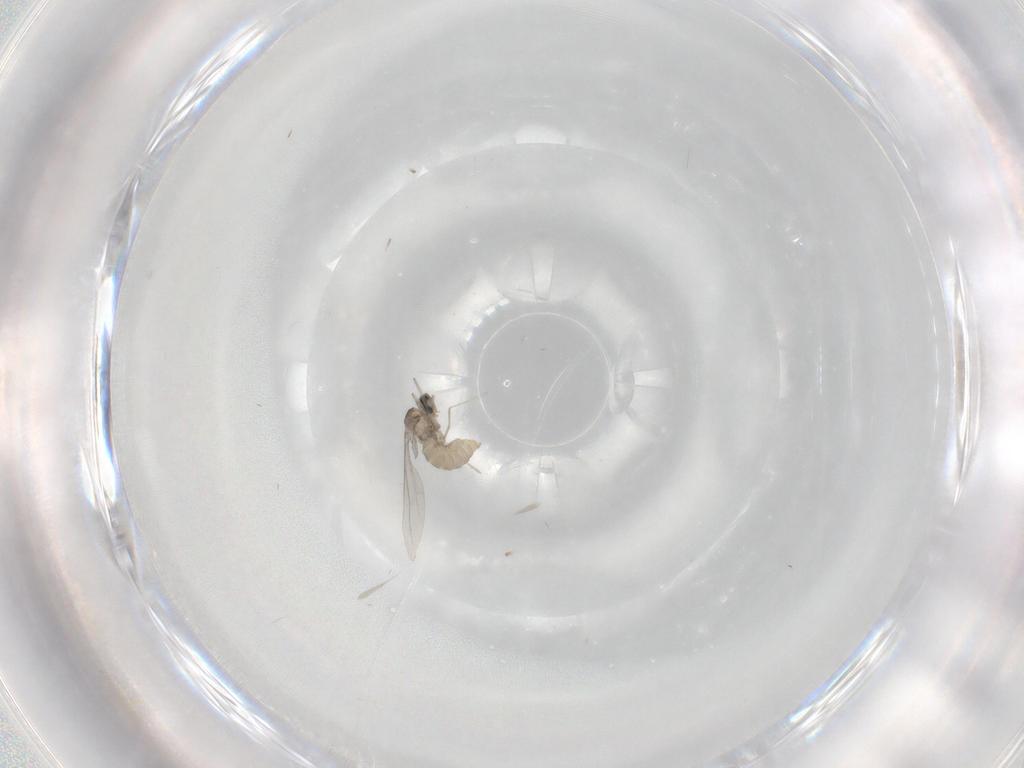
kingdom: Animalia
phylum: Arthropoda
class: Insecta
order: Diptera
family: Cecidomyiidae
